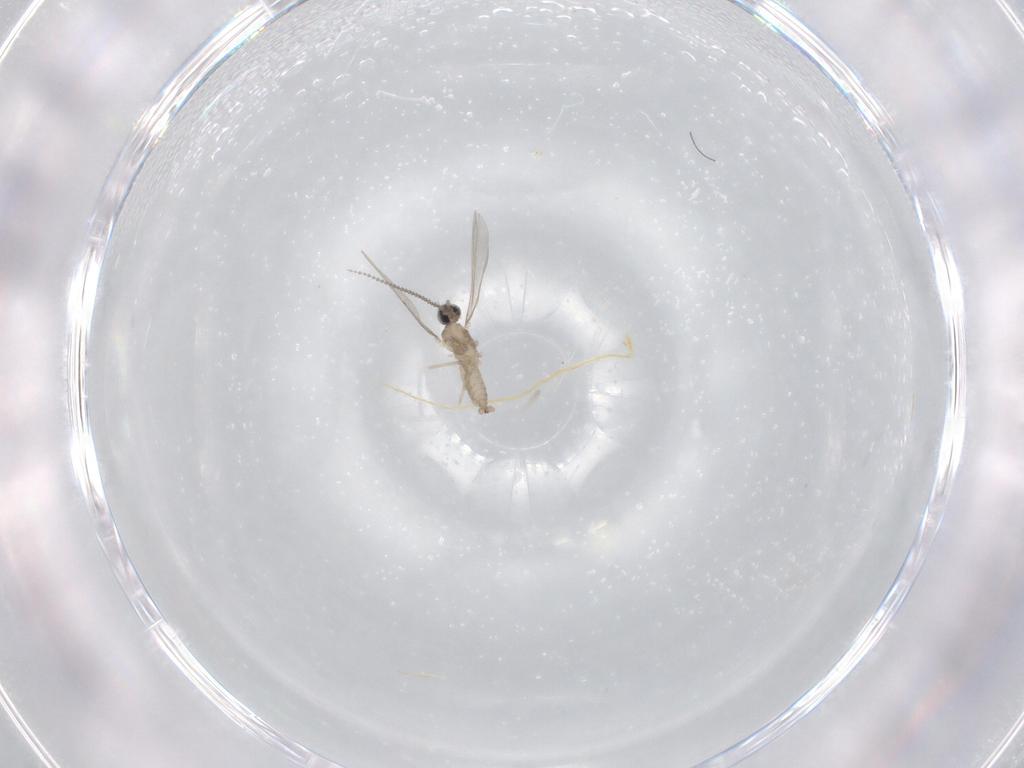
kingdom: Animalia
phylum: Arthropoda
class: Insecta
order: Diptera
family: Cecidomyiidae
